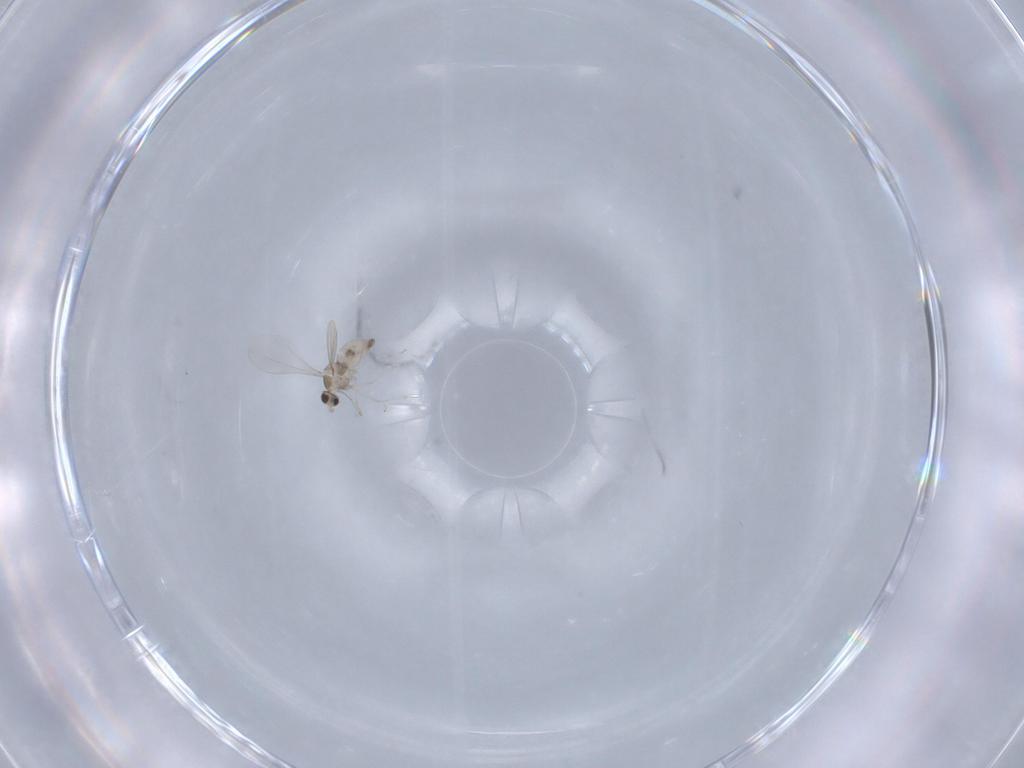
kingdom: Animalia
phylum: Arthropoda
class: Insecta
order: Diptera
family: Cecidomyiidae
